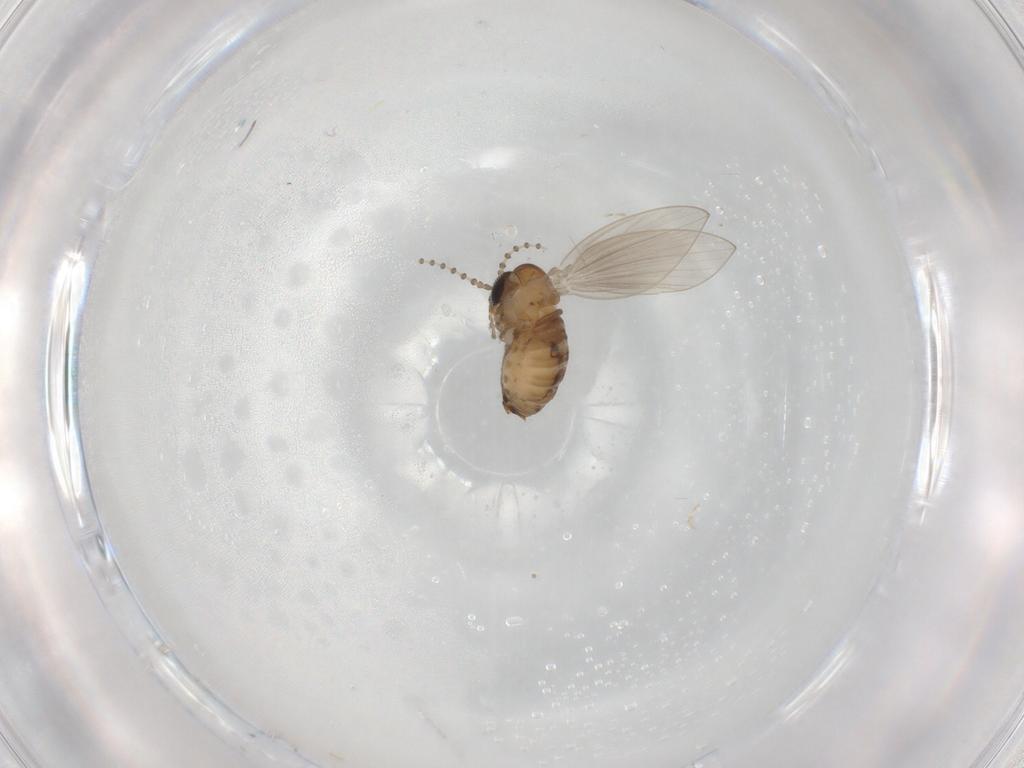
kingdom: Animalia
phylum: Arthropoda
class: Insecta
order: Diptera
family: Psychodidae
